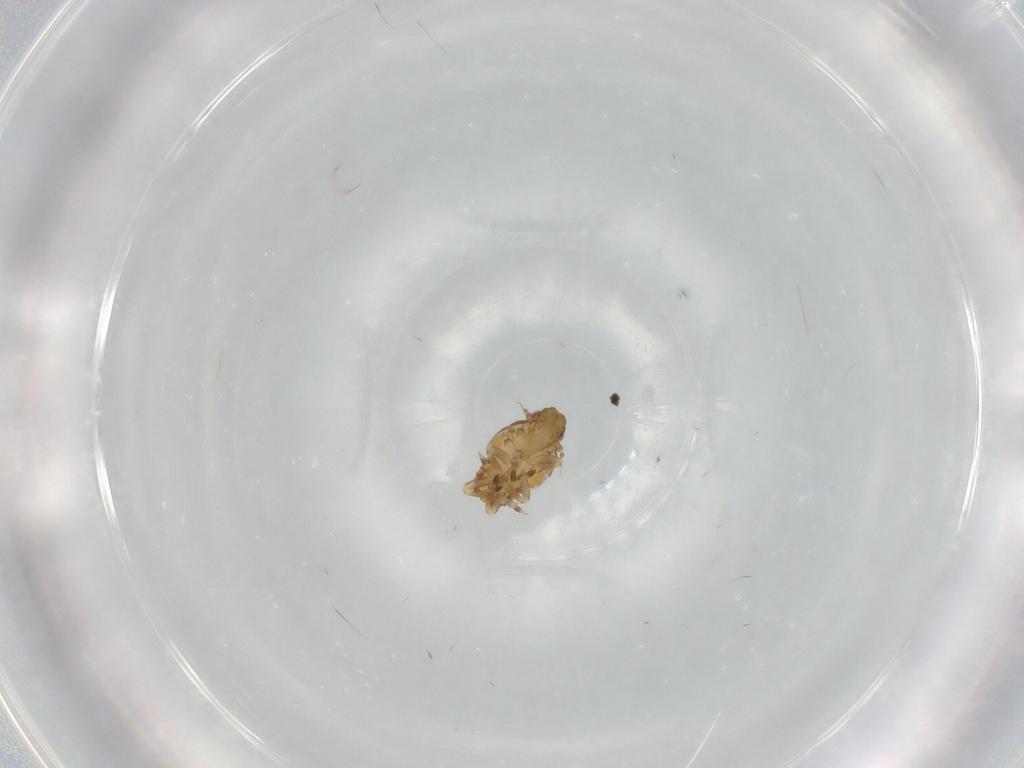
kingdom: Animalia
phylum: Arthropoda
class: Insecta
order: Hemiptera
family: Flatidae
